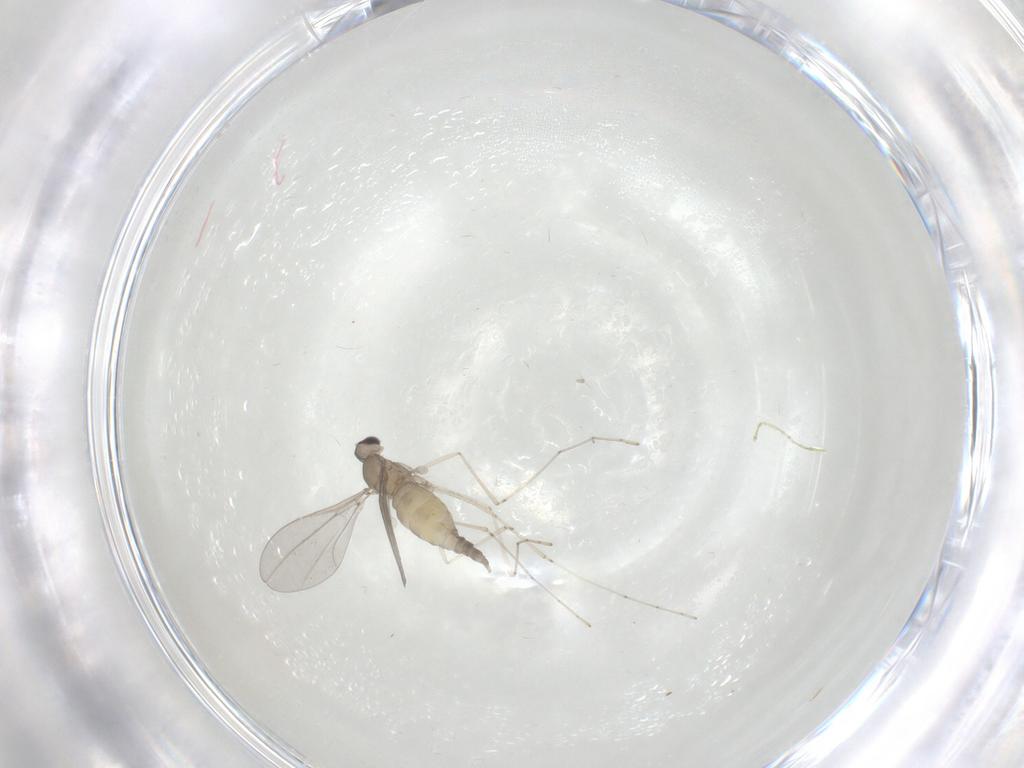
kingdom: Animalia
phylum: Arthropoda
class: Insecta
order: Diptera
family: Cecidomyiidae
